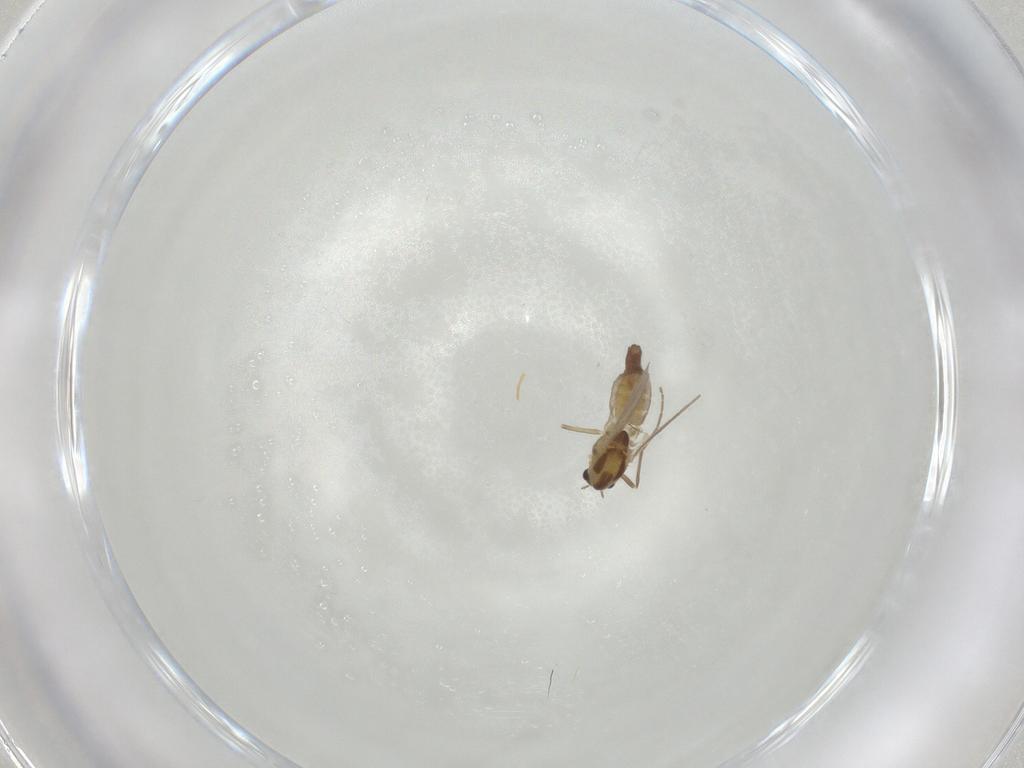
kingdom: Animalia
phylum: Arthropoda
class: Insecta
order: Diptera
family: Chironomidae
